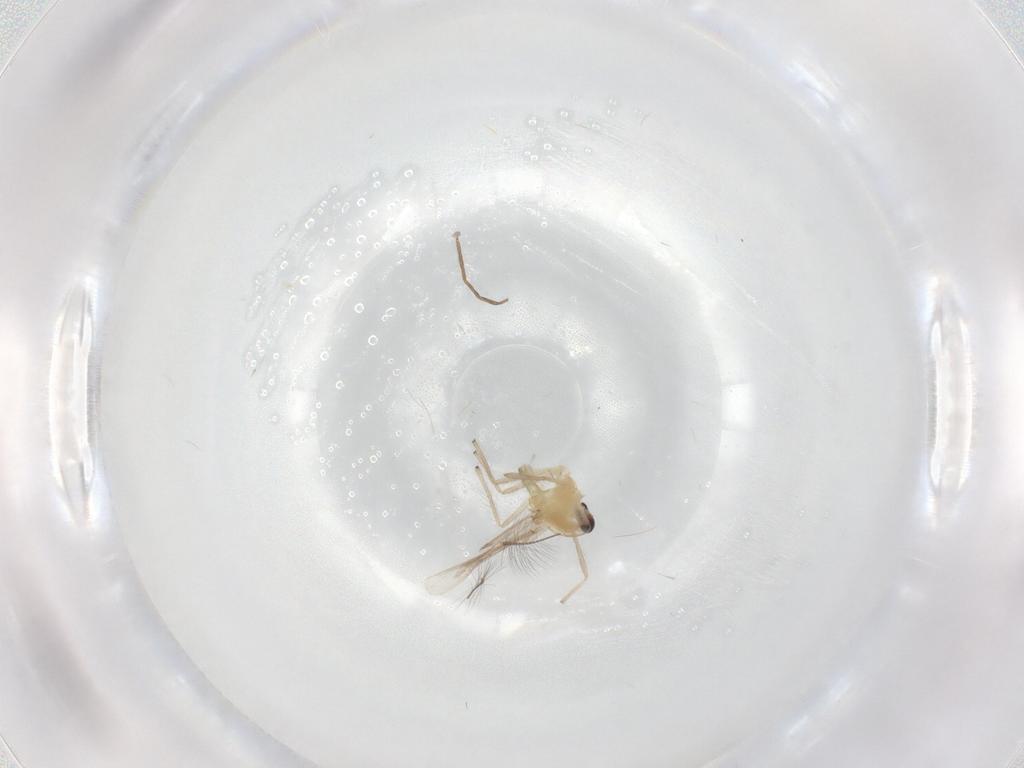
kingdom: Animalia
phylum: Arthropoda
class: Insecta
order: Diptera
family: Chironomidae
